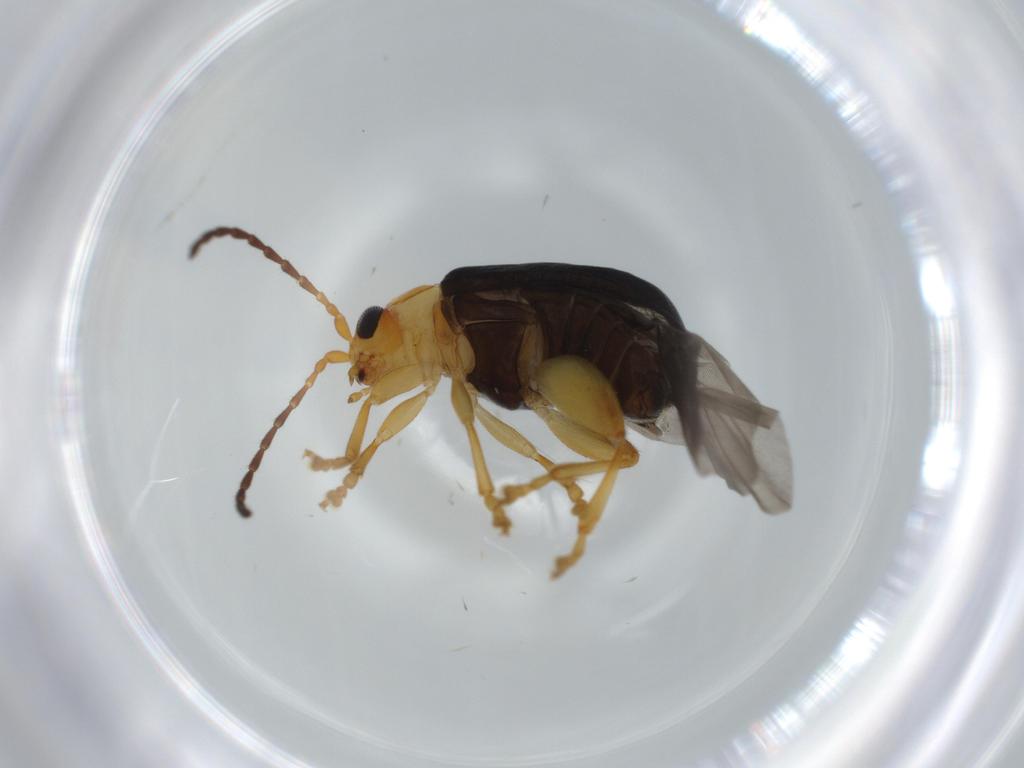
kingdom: Animalia
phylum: Arthropoda
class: Insecta
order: Coleoptera
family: Chrysomelidae
